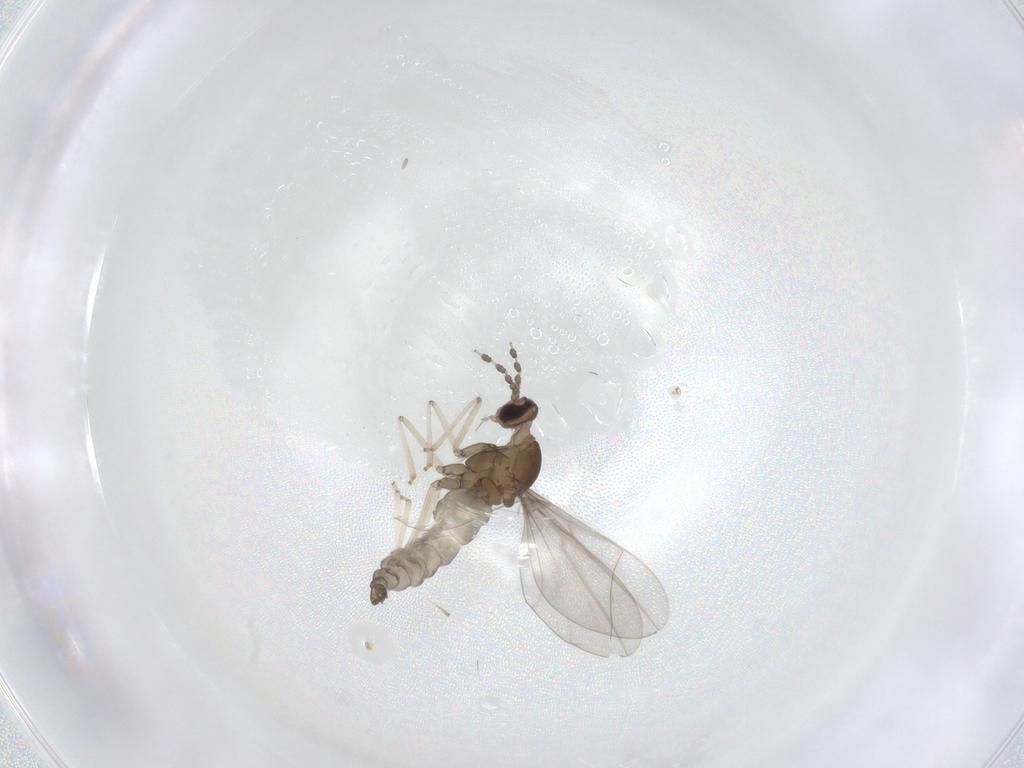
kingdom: Animalia
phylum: Arthropoda
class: Insecta
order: Diptera
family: Cecidomyiidae
